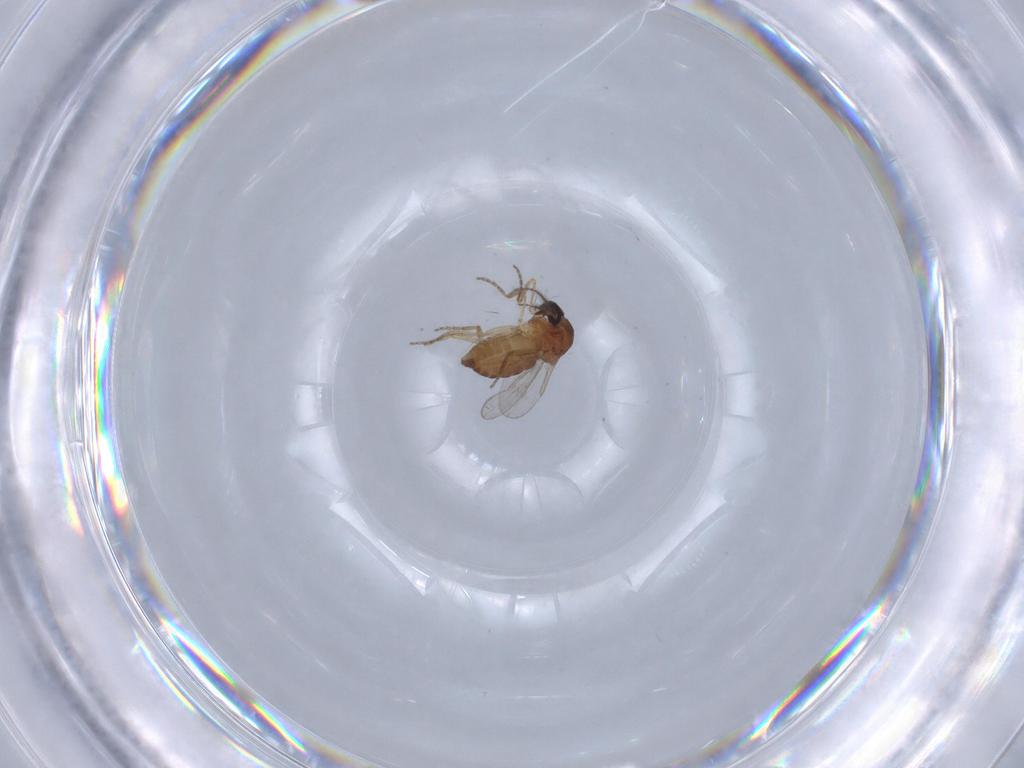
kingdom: Animalia
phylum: Arthropoda
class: Insecta
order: Diptera
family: Ceratopogonidae
